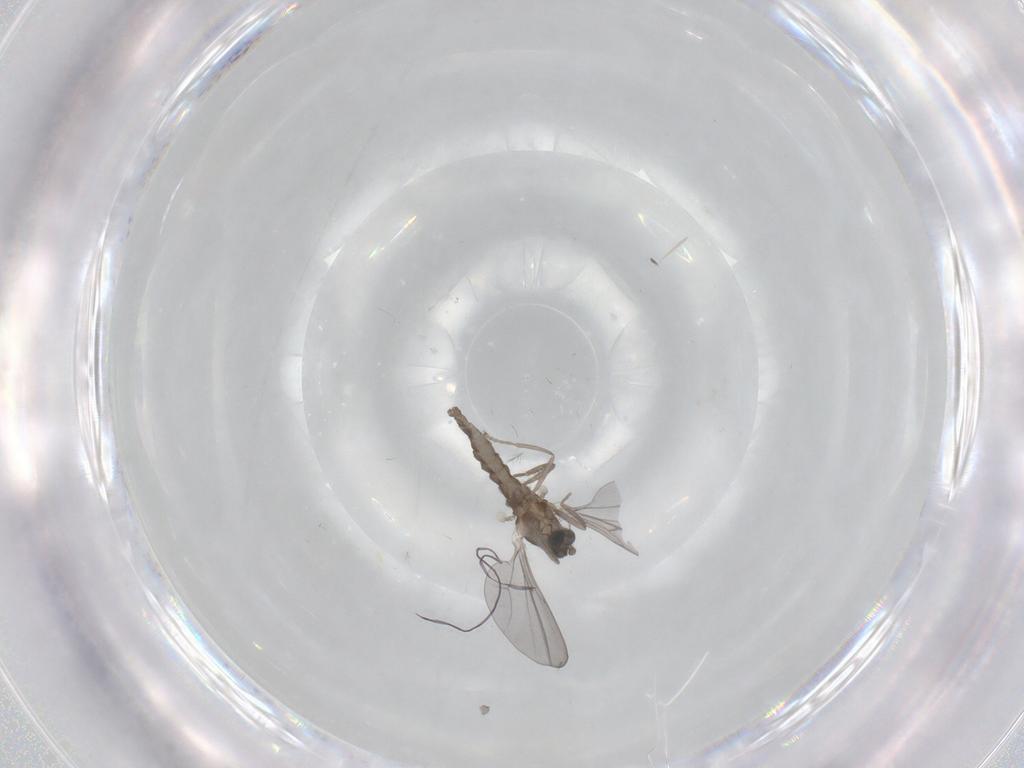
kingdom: Animalia
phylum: Arthropoda
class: Insecta
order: Diptera
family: Cecidomyiidae
